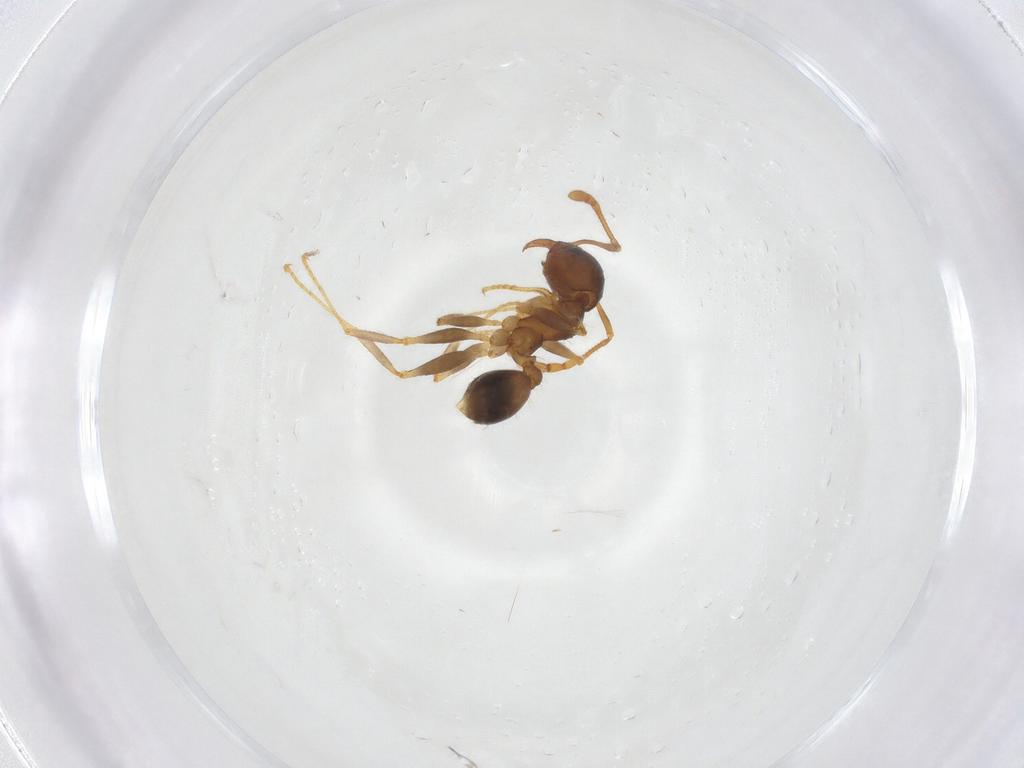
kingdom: Animalia
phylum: Arthropoda
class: Insecta
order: Hymenoptera
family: Formicidae
